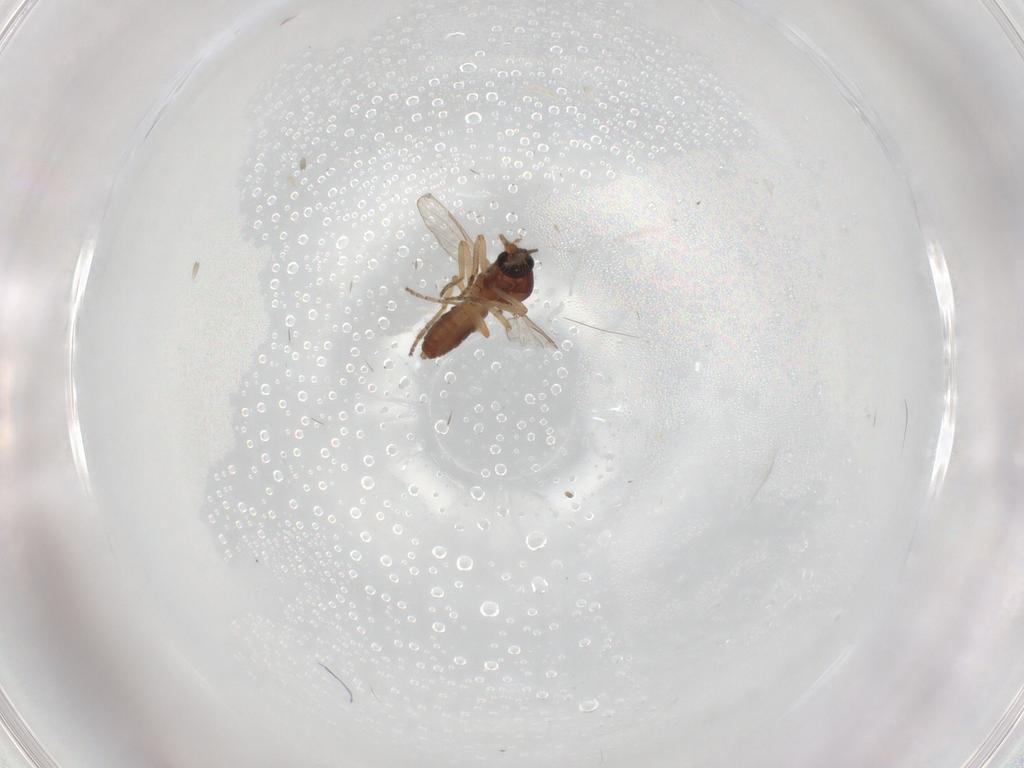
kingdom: Animalia
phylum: Arthropoda
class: Insecta
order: Diptera
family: Ceratopogonidae
